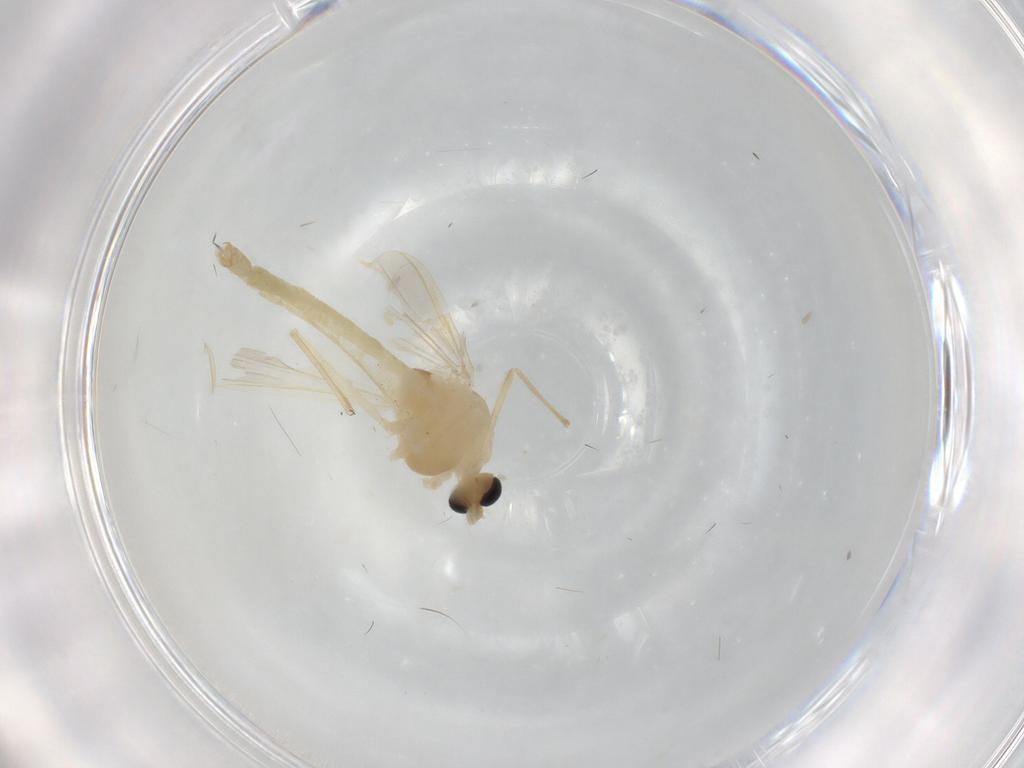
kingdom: Animalia
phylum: Arthropoda
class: Insecta
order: Diptera
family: Chironomidae
